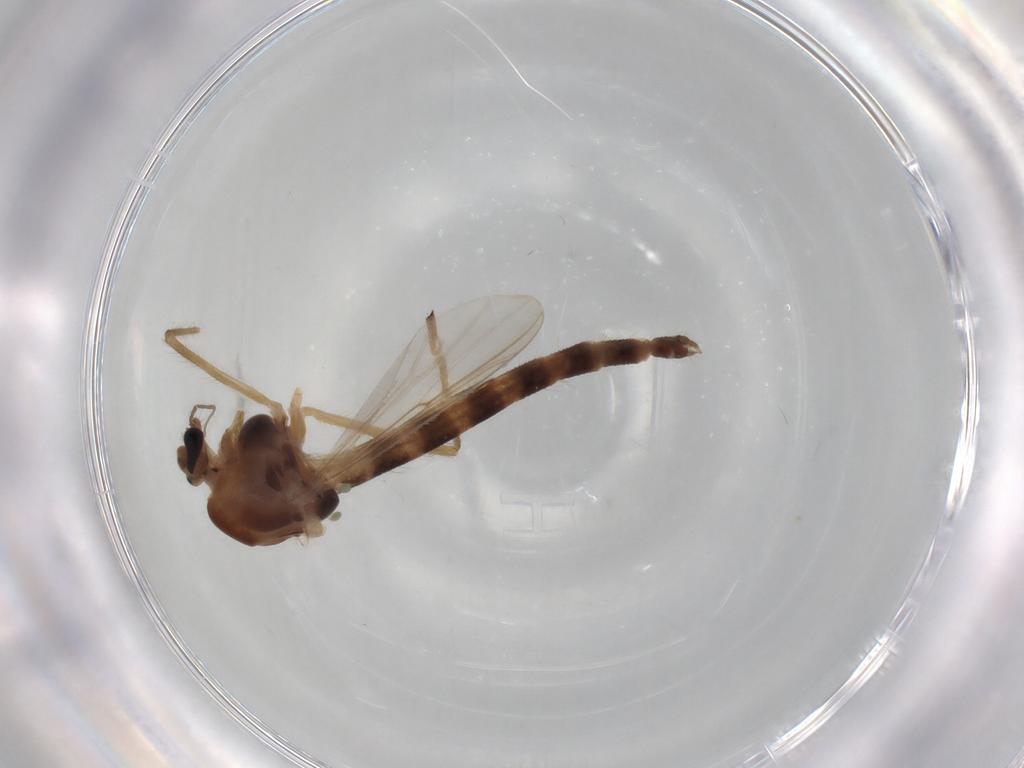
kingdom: Animalia
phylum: Arthropoda
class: Insecta
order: Diptera
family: Chironomidae
